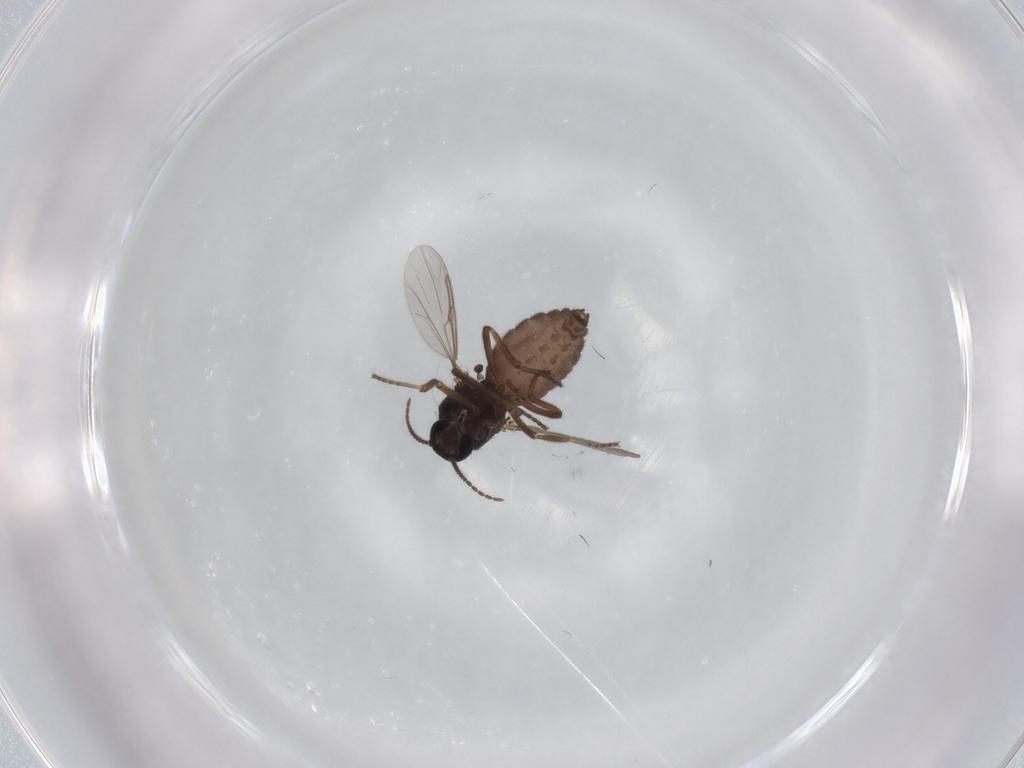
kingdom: Animalia
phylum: Arthropoda
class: Insecta
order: Diptera
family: Ceratopogonidae
